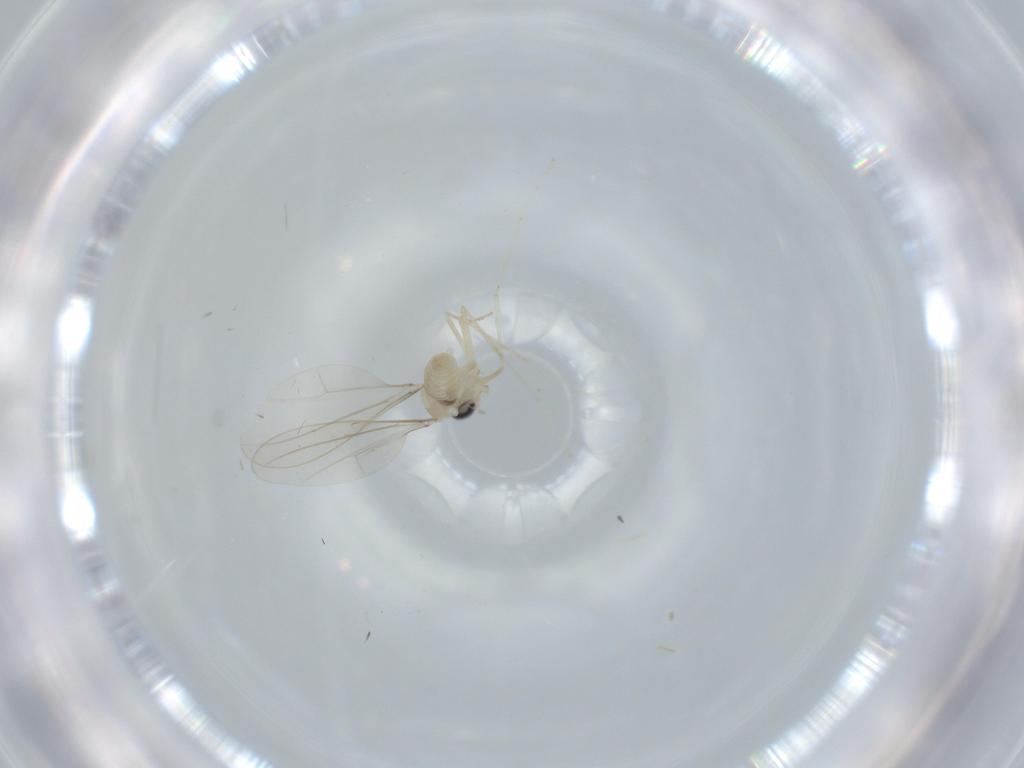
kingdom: Animalia
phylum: Arthropoda
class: Insecta
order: Diptera
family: Cecidomyiidae
